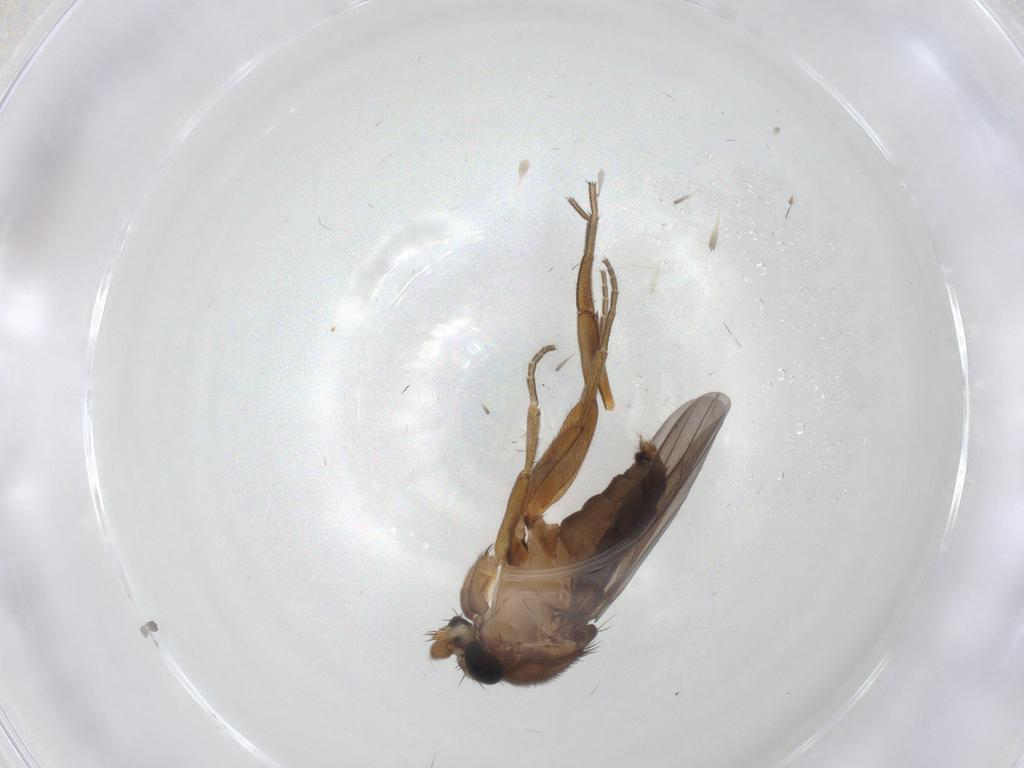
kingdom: Animalia
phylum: Arthropoda
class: Insecta
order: Diptera
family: Phoridae
